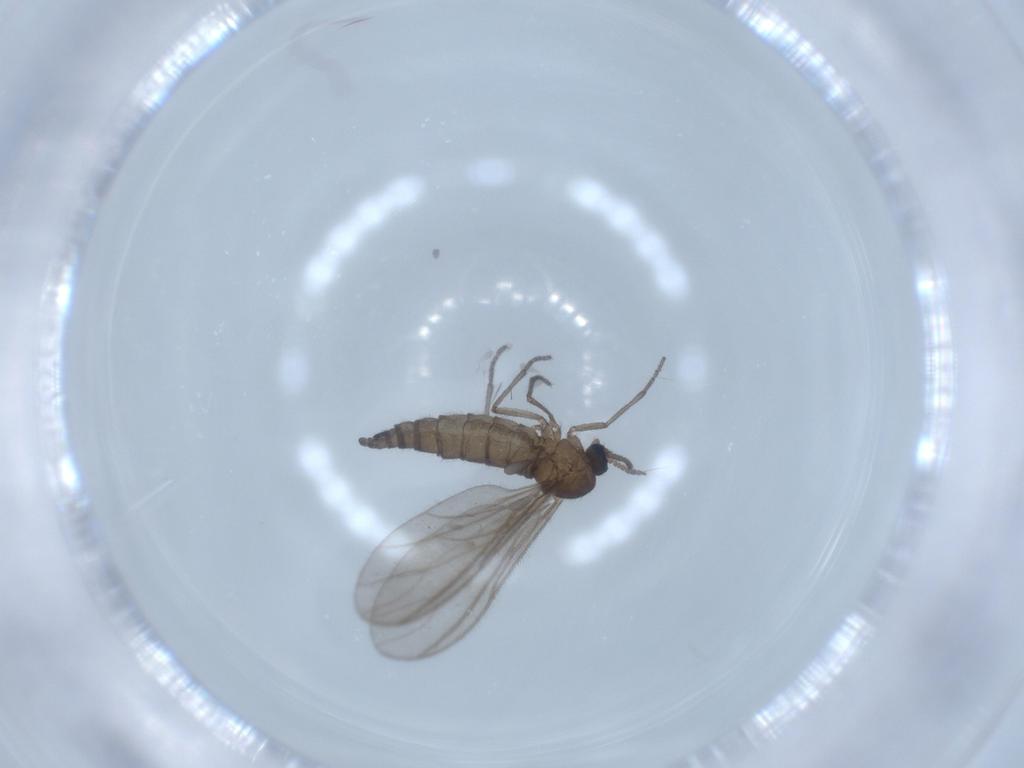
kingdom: Animalia
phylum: Arthropoda
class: Insecta
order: Diptera
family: Sciaridae
